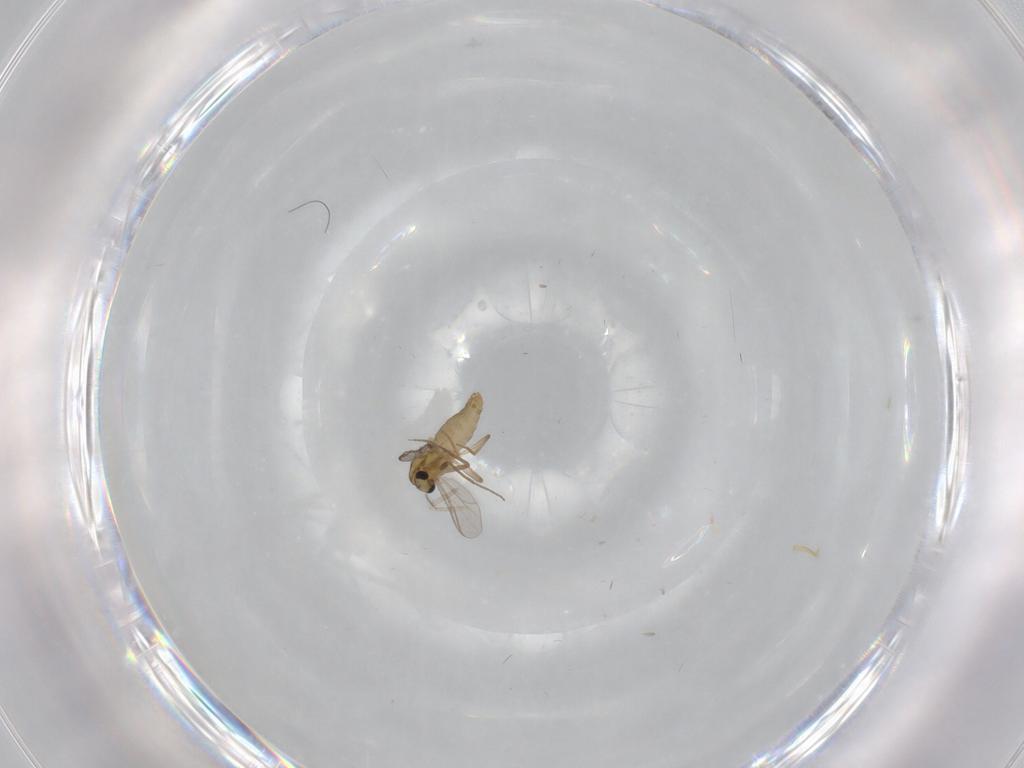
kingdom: Animalia
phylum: Arthropoda
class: Insecta
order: Diptera
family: Chironomidae
